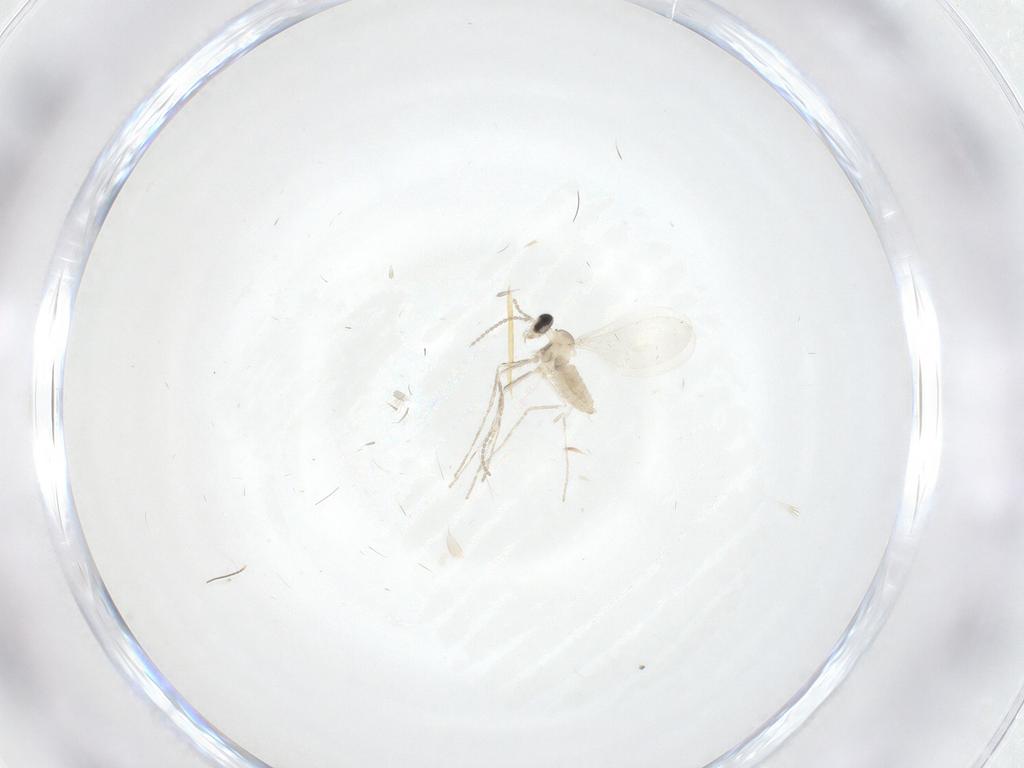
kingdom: Animalia
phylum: Arthropoda
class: Insecta
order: Diptera
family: Cecidomyiidae
